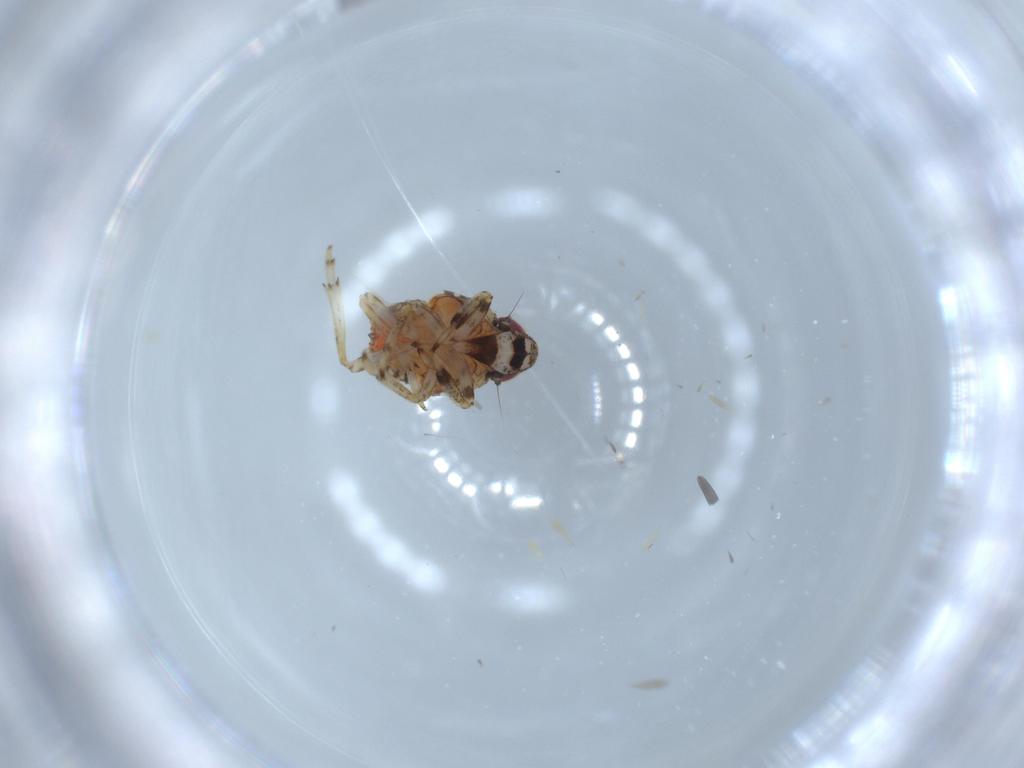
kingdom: Animalia
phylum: Arthropoda
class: Insecta
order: Hemiptera
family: Issidae
